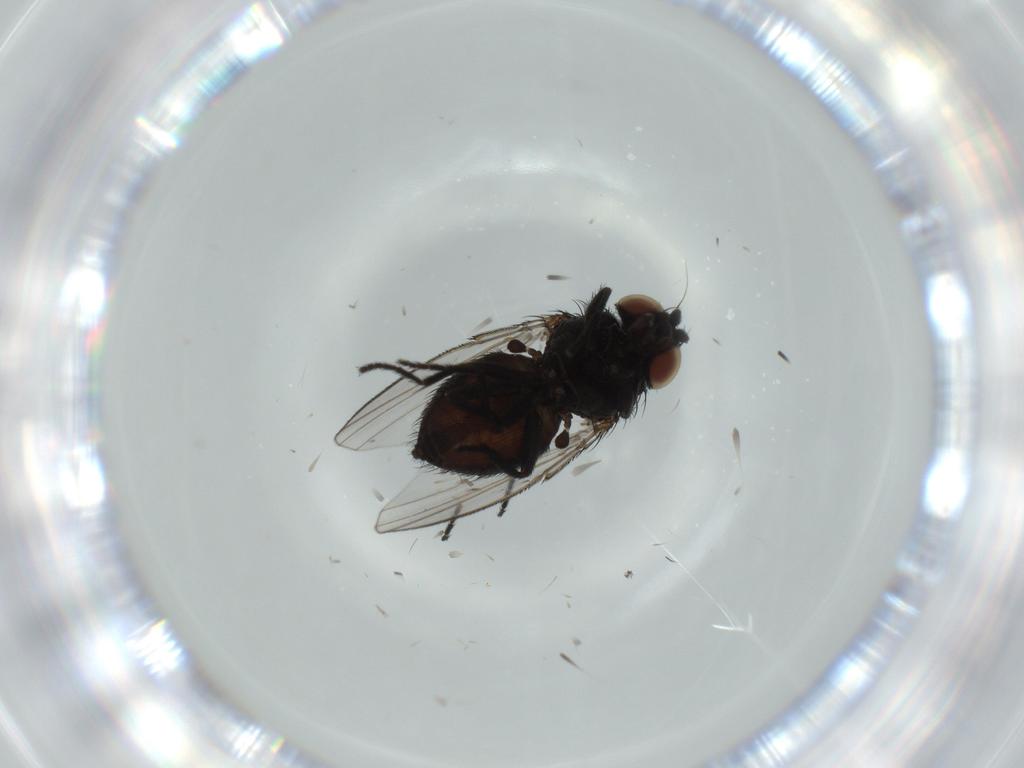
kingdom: Animalia
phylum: Arthropoda
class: Insecta
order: Diptera
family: Milichiidae
